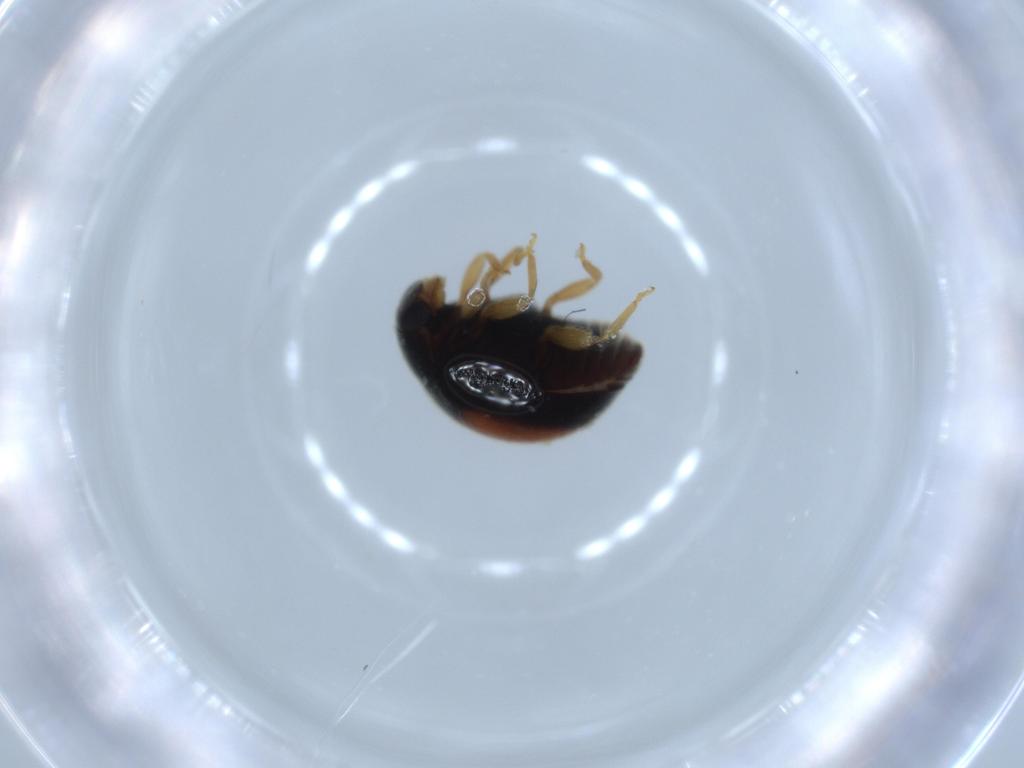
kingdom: Animalia
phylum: Arthropoda
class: Insecta
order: Coleoptera
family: Coccinellidae
